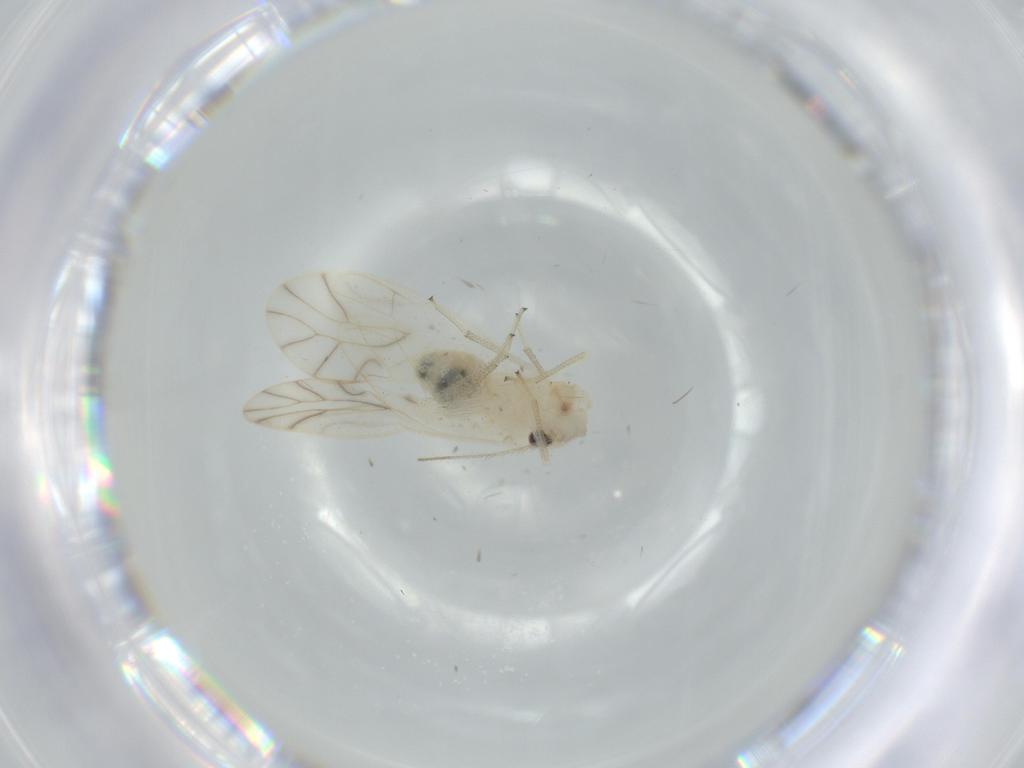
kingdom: Animalia
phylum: Arthropoda
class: Insecta
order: Psocodea
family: Caeciliusidae
